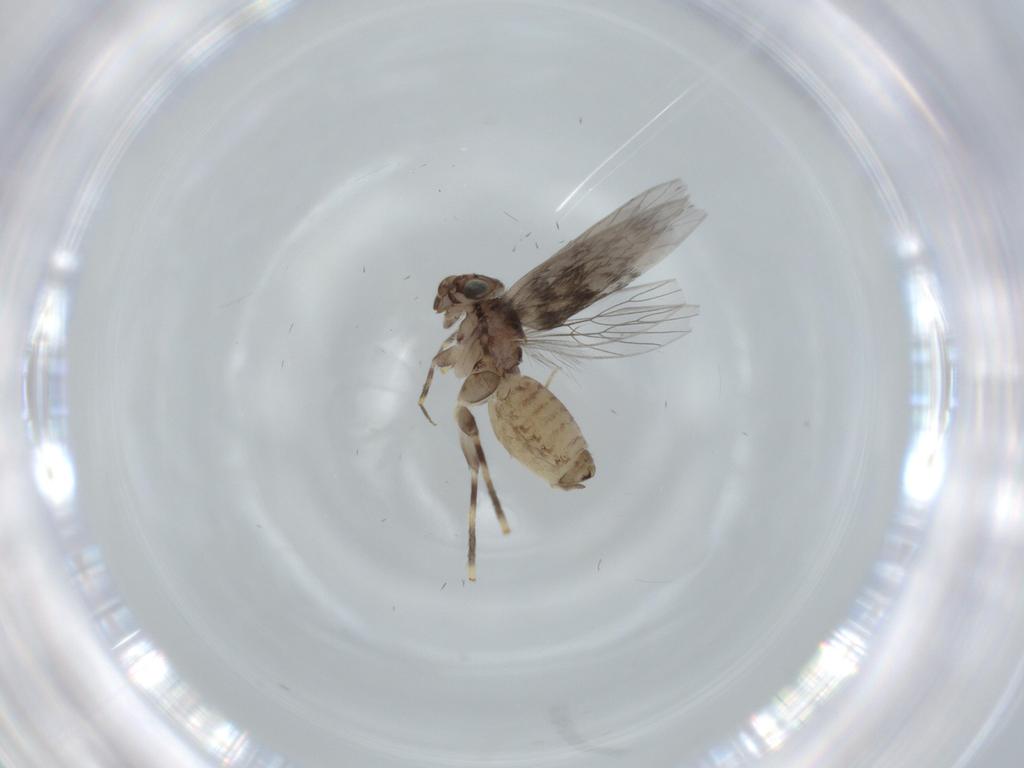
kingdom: Animalia
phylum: Arthropoda
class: Insecta
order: Psocodea
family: Lepidopsocidae
